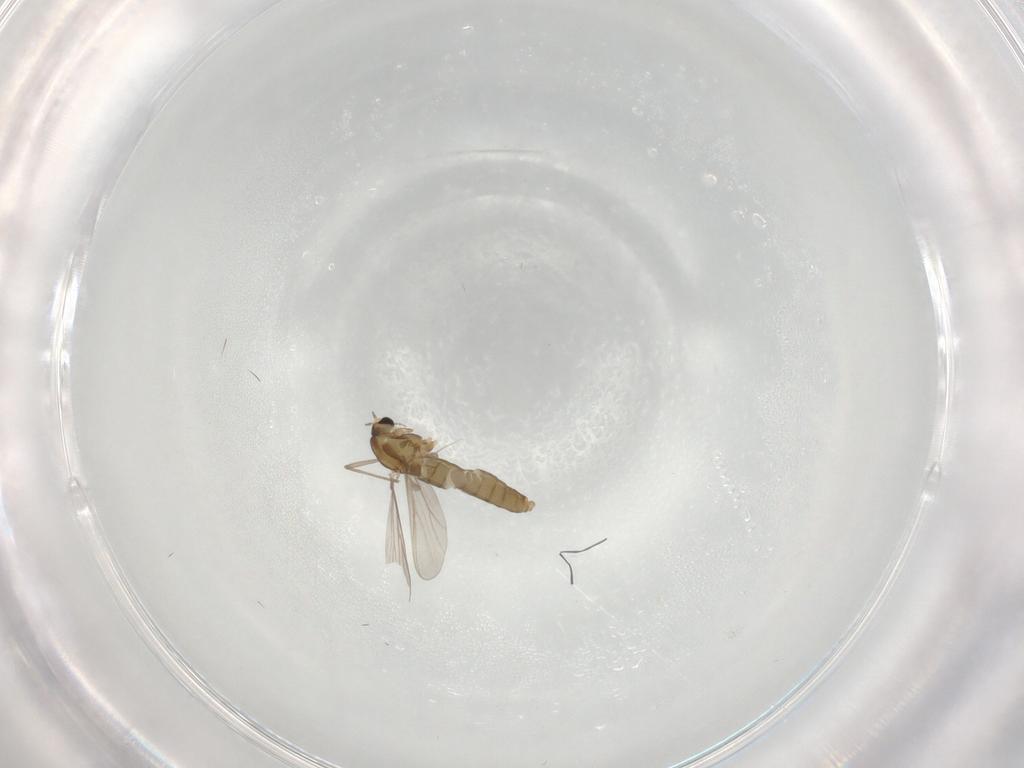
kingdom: Animalia
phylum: Arthropoda
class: Insecta
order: Diptera
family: Chironomidae
